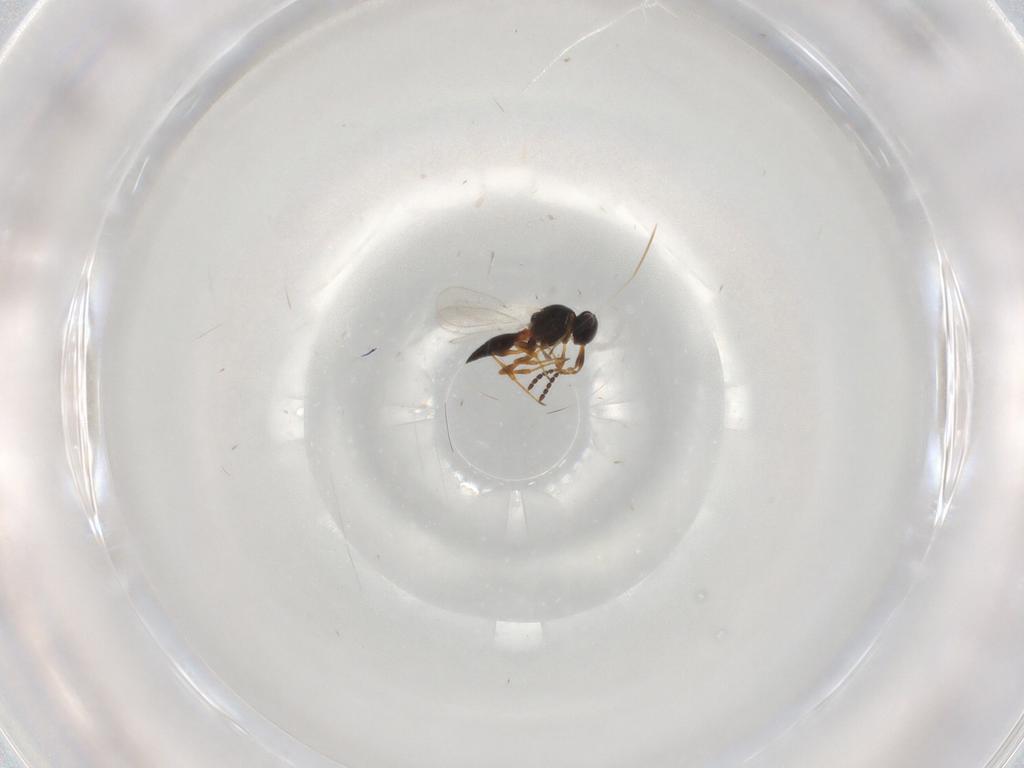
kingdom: Animalia
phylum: Arthropoda
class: Insecta
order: Hymenoptera
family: Platygastridae
